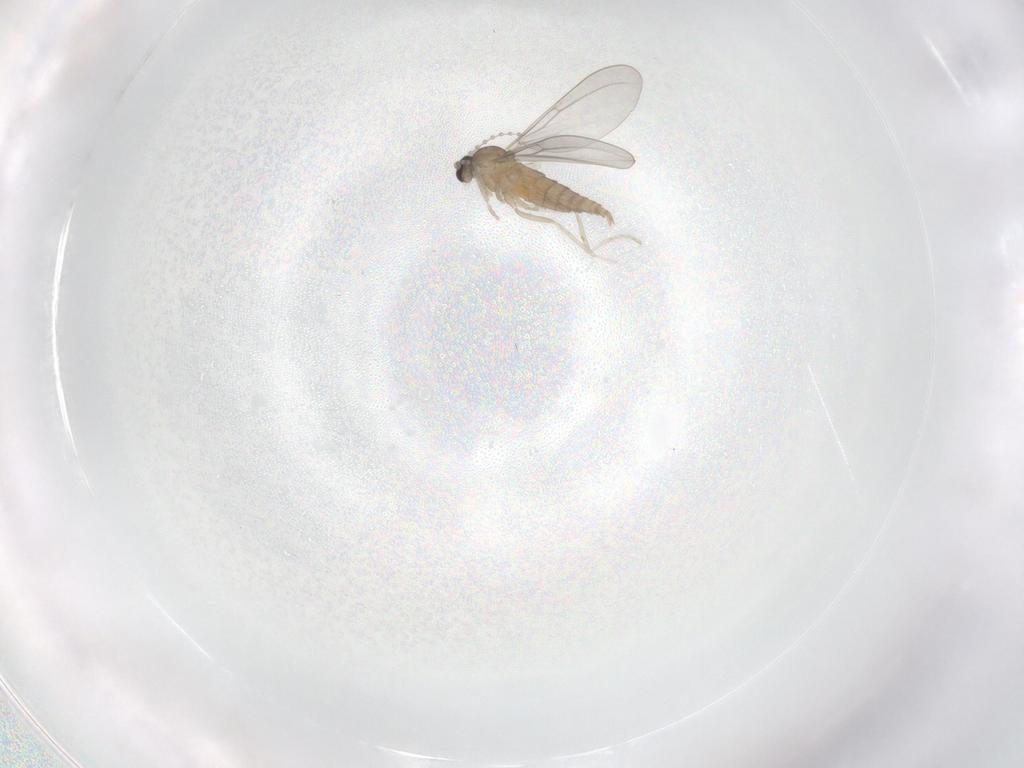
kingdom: Animalia
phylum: Arthropoda
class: Insecta
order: Diptera
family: Cecidomyiidae
